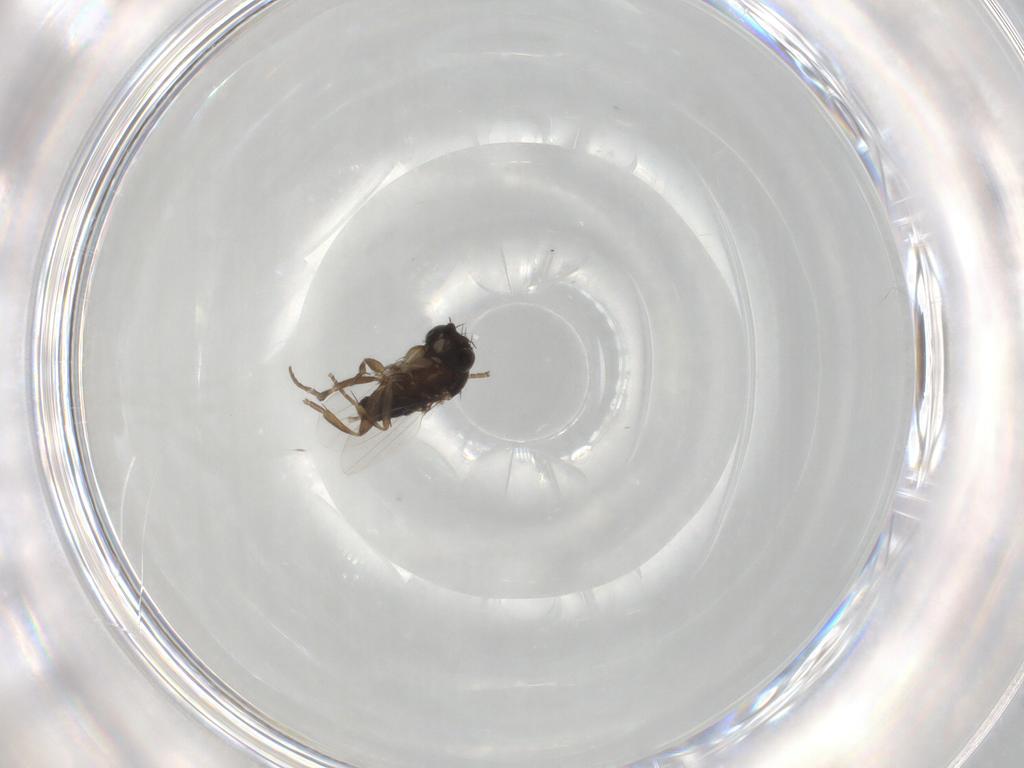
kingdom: Animalia
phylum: Arthropoda
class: Insecta
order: Diptera
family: Phoridae
